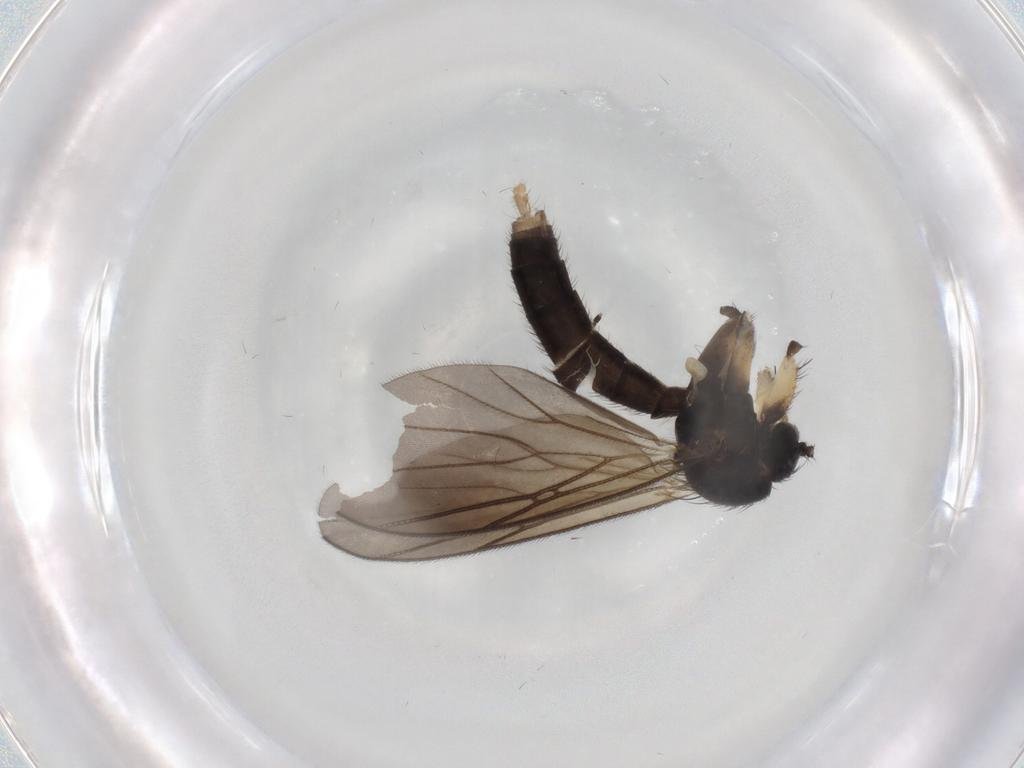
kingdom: Animalia
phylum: Arthropoda
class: Insecta
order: Diptera
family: Mycetophilidae
